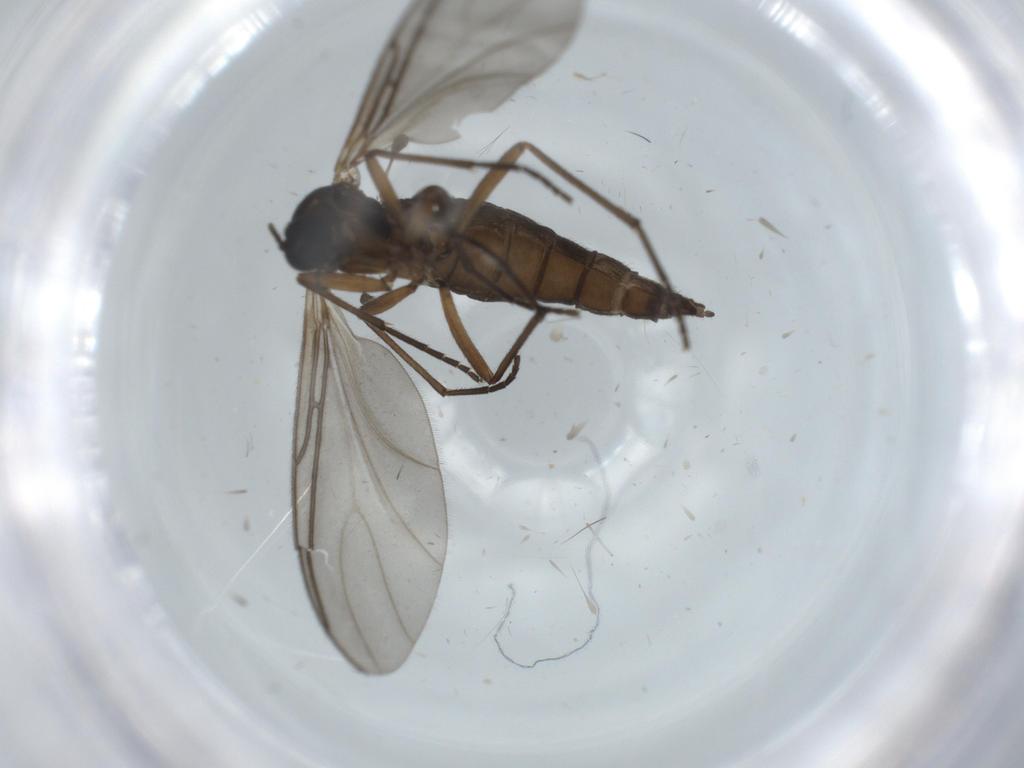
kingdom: Animalia
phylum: Arthropoda
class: Insecta
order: Diptera
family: Sciaridae
